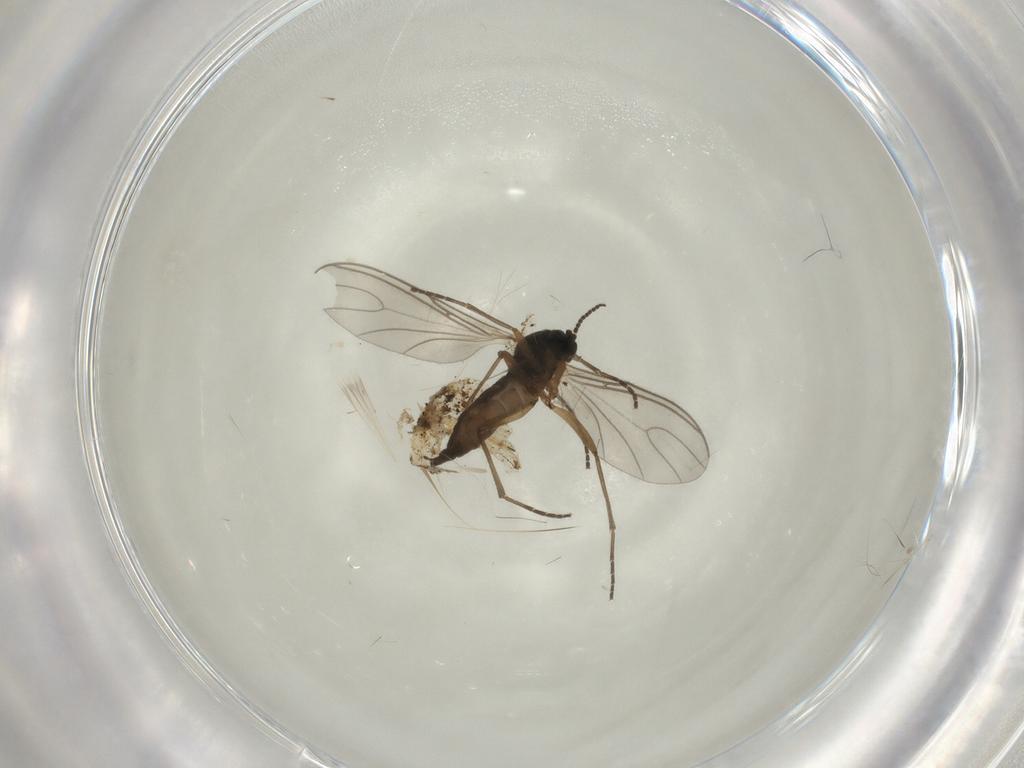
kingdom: Animalia
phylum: Arthropoda
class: Insecta
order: Diptera
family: Sciaridae
